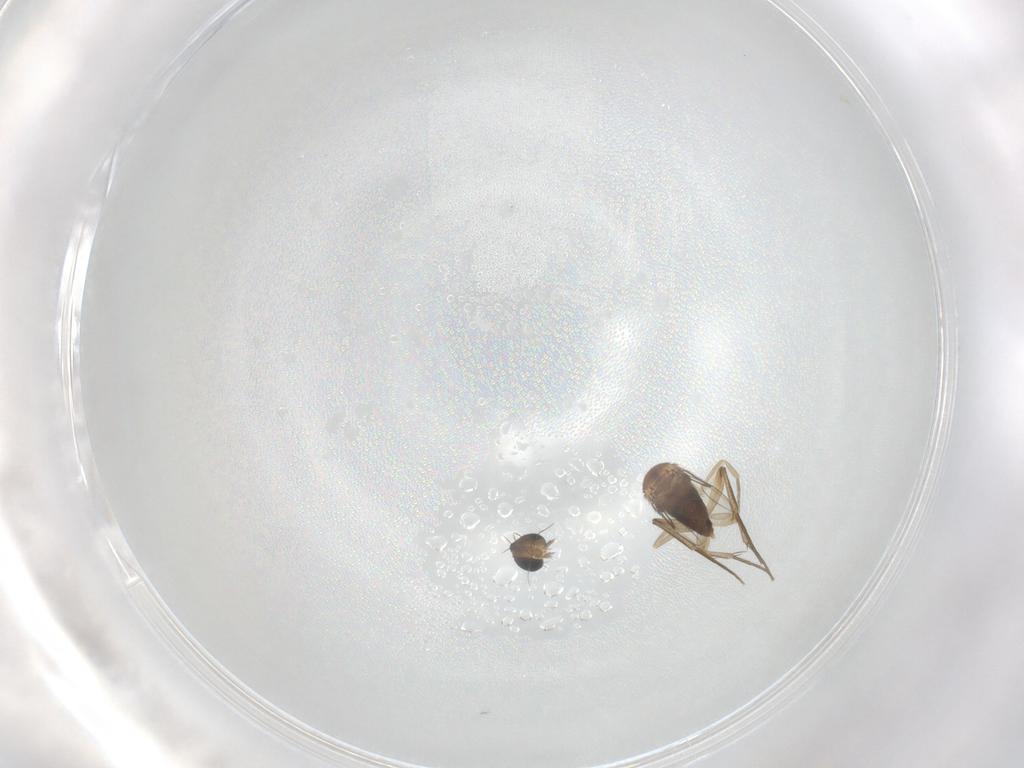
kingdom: Animalia
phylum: Arthropoda
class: Insecta
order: Diptera
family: Phoridae
